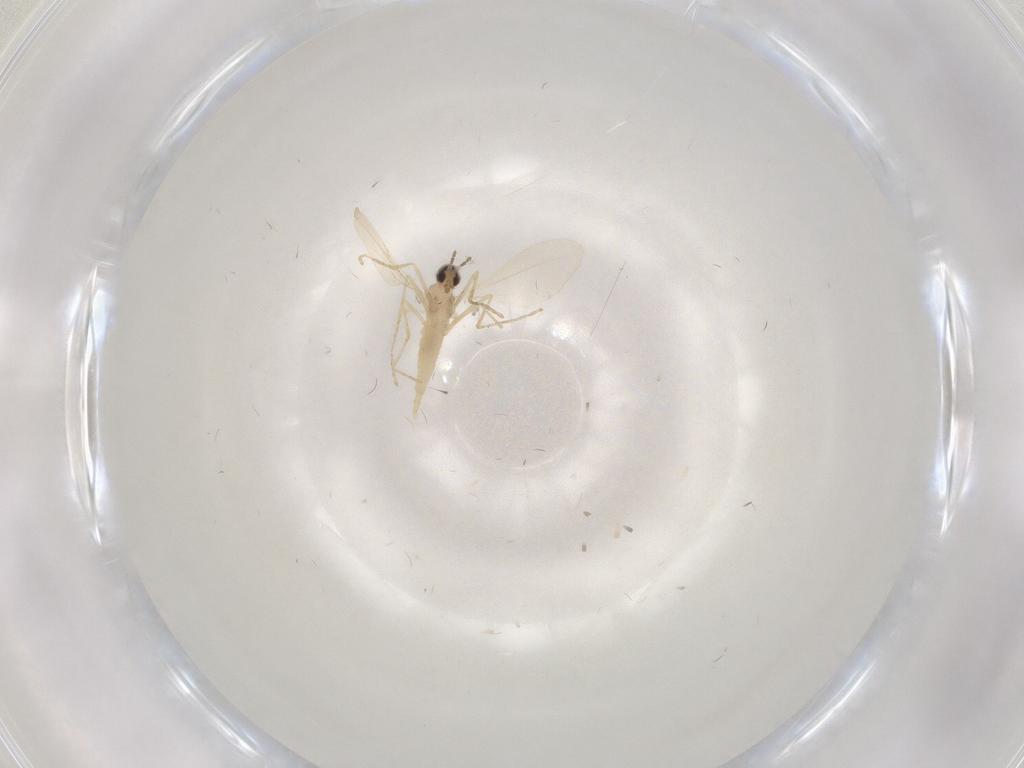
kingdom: Animalia
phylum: Arthropoda
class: Insecta
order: Diptera
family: Cecidomyiidae
